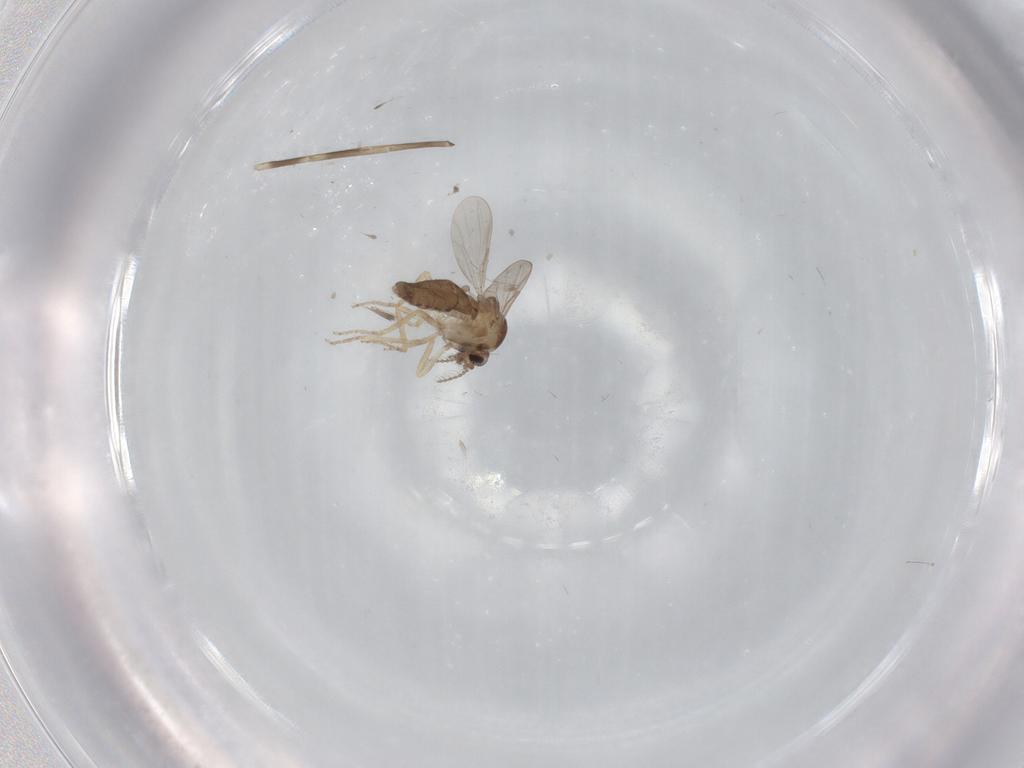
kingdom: Animalia
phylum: Arthropoda
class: Insecta
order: Diptera
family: Ceratopogonidae
